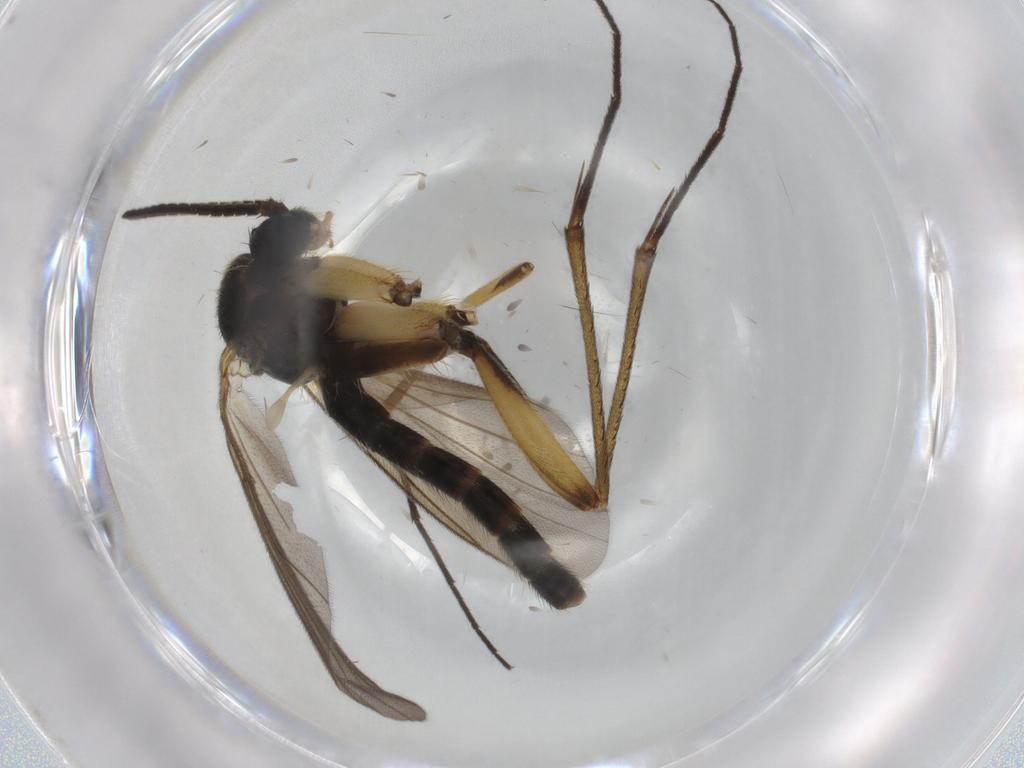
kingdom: Animalia
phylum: Arthropoda
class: Insecta
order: Diptera
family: Mycetophilidae
